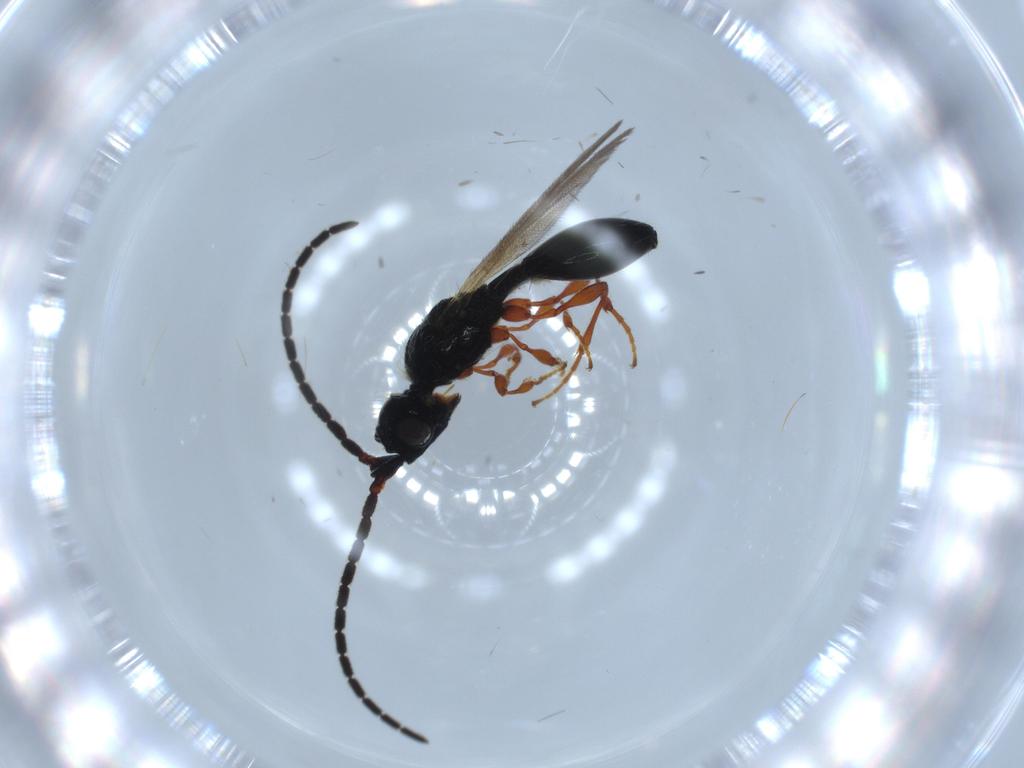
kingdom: Animalia
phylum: Arthropoda
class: Insecta
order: Hymenoptera
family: Diapriidae
